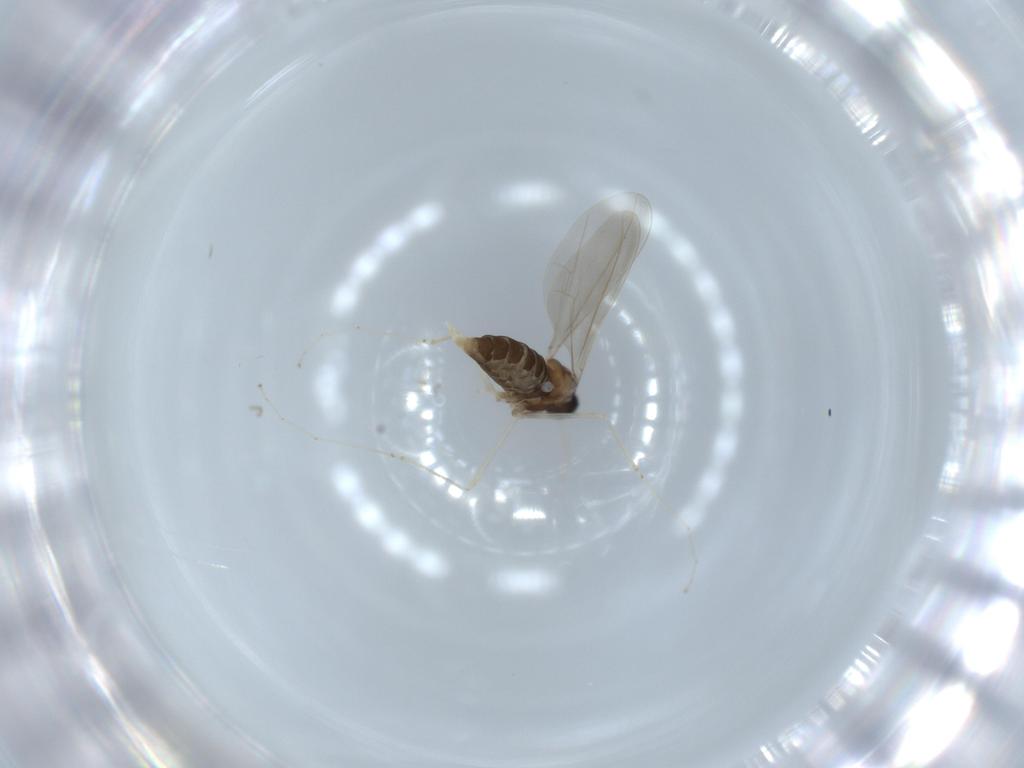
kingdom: Animalia
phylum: Arthropoda
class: Insecta
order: Diptera
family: Cecidomyiidae
